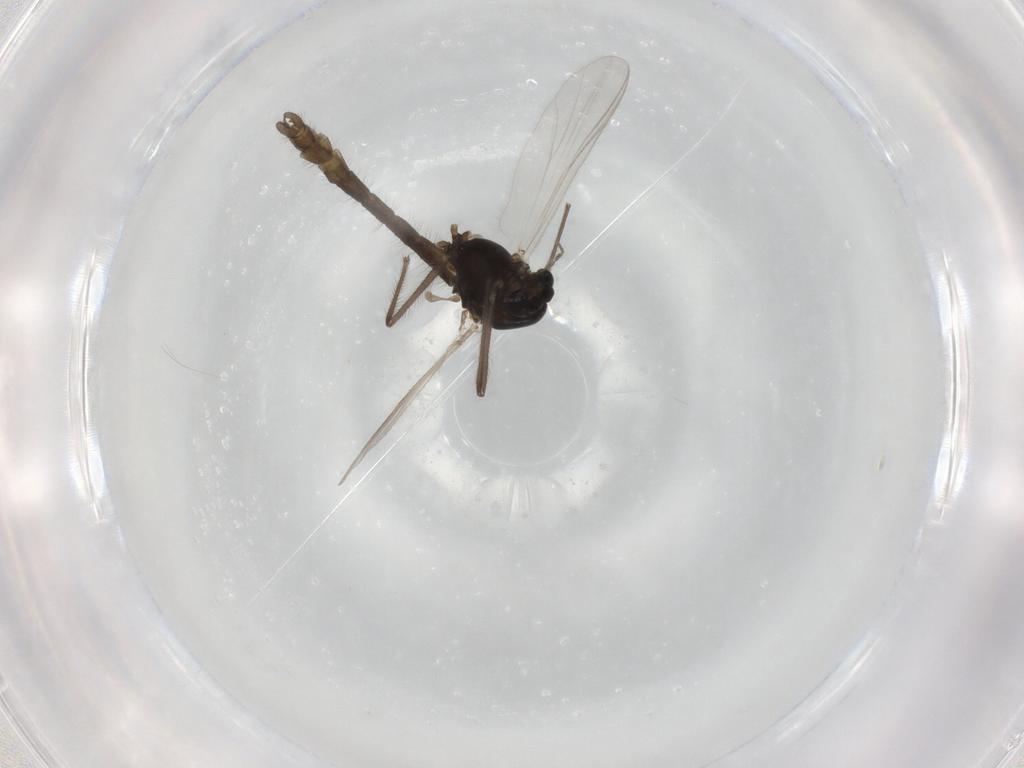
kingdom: Animalia
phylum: Arthropoda
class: Insecta
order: Diptera
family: Chironomidae
